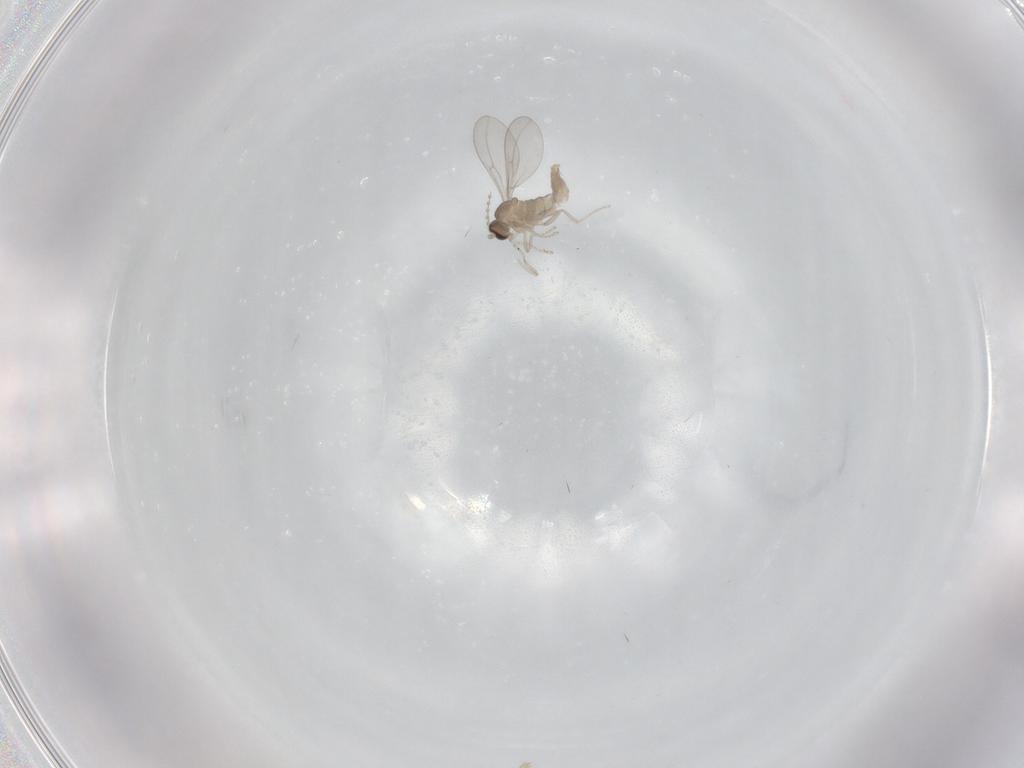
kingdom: Animalia
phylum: Arthropoda
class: Insecta
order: Diptera
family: Cecidomyiidae
